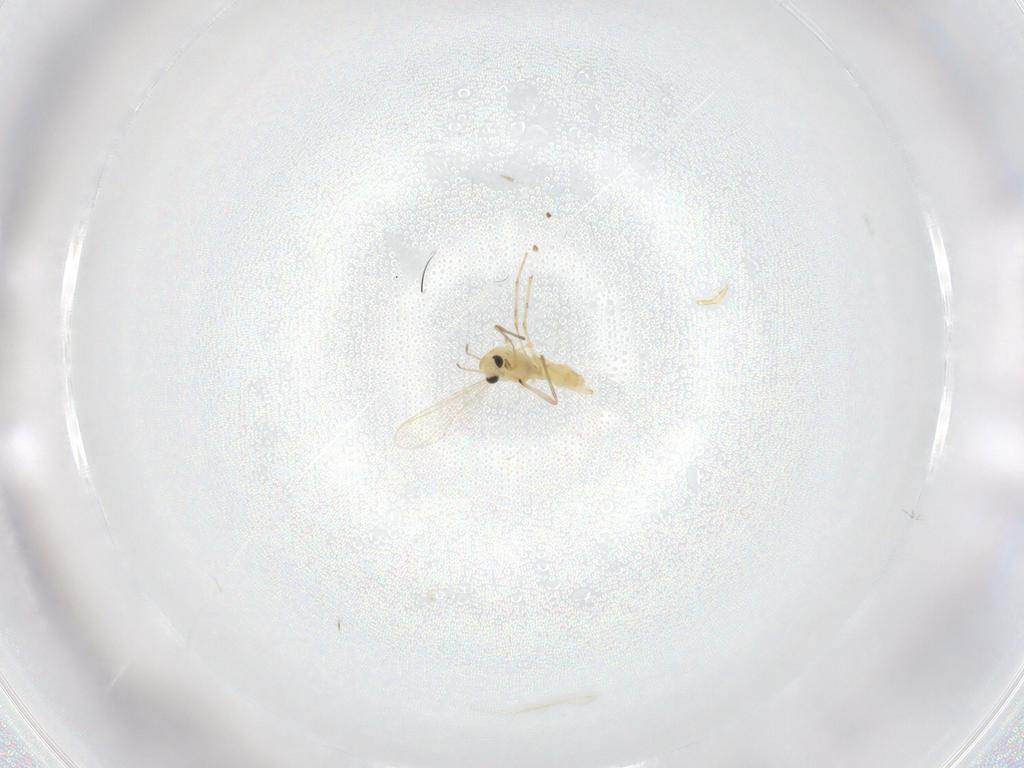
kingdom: Animalia
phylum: Arthropoda
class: Insecta
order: Diptera
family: Chironomidae
